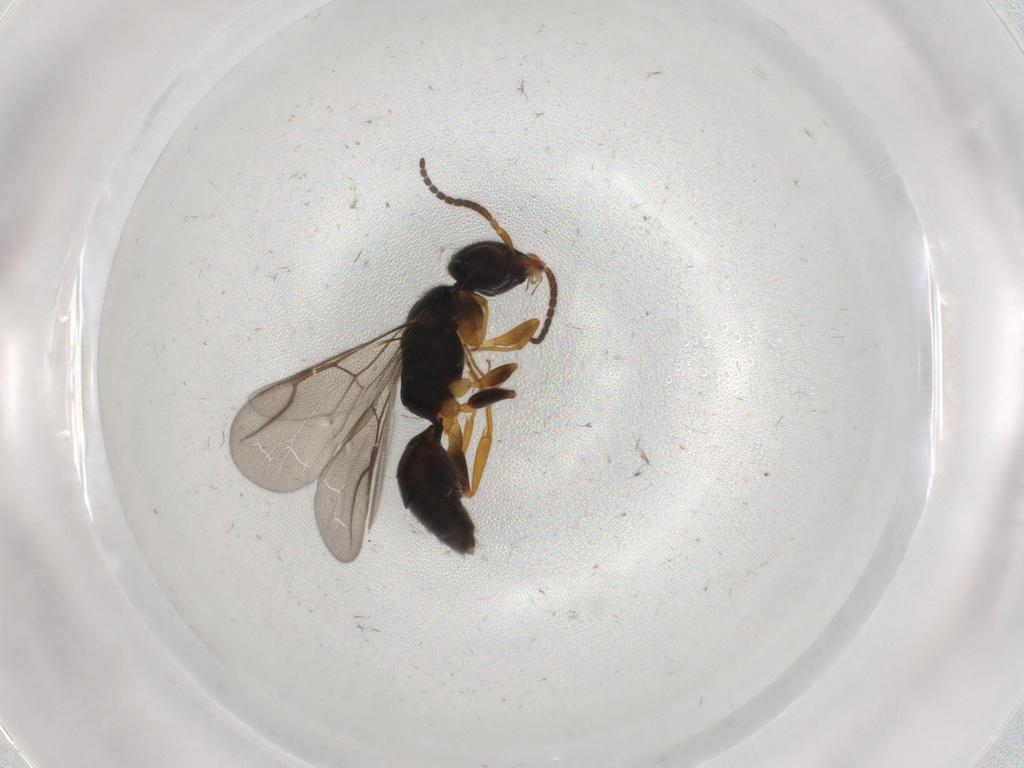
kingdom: Animalia
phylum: Arthropoda
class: Insecta
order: Hymenoptera
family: Bethylidae
